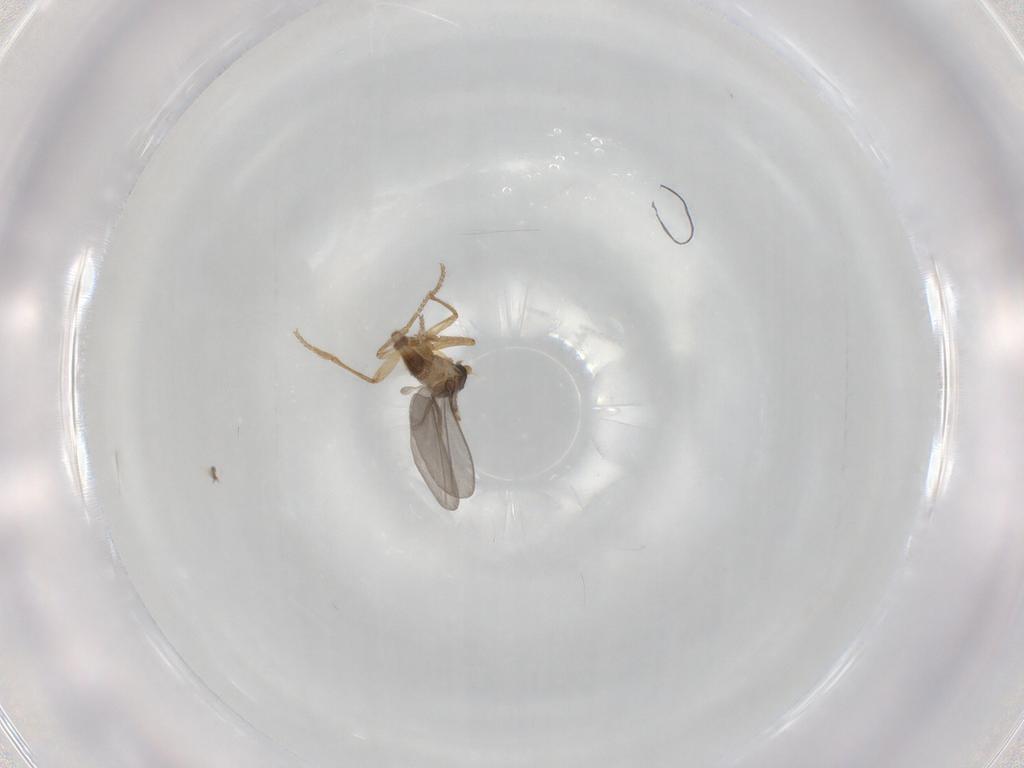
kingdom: Animalia
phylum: Arthropoda
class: Insecta
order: Diptera
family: Phoridae
